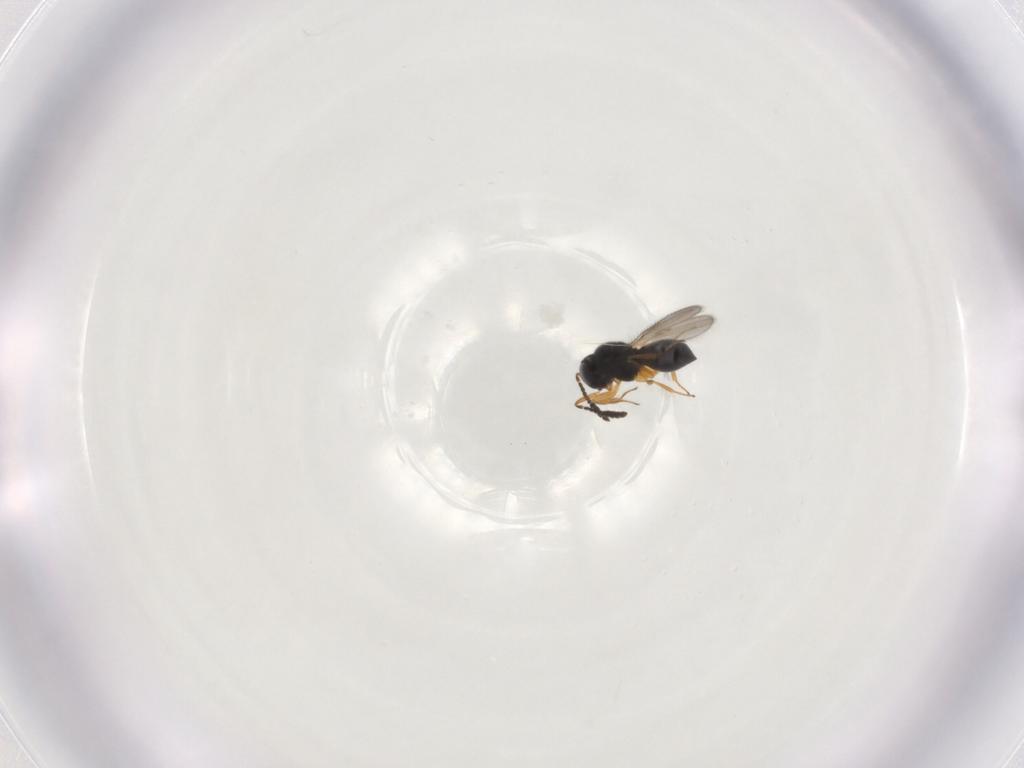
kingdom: Animalia
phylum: Arthropoda
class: Insecta
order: Hymenoptera
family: Scelionidae
